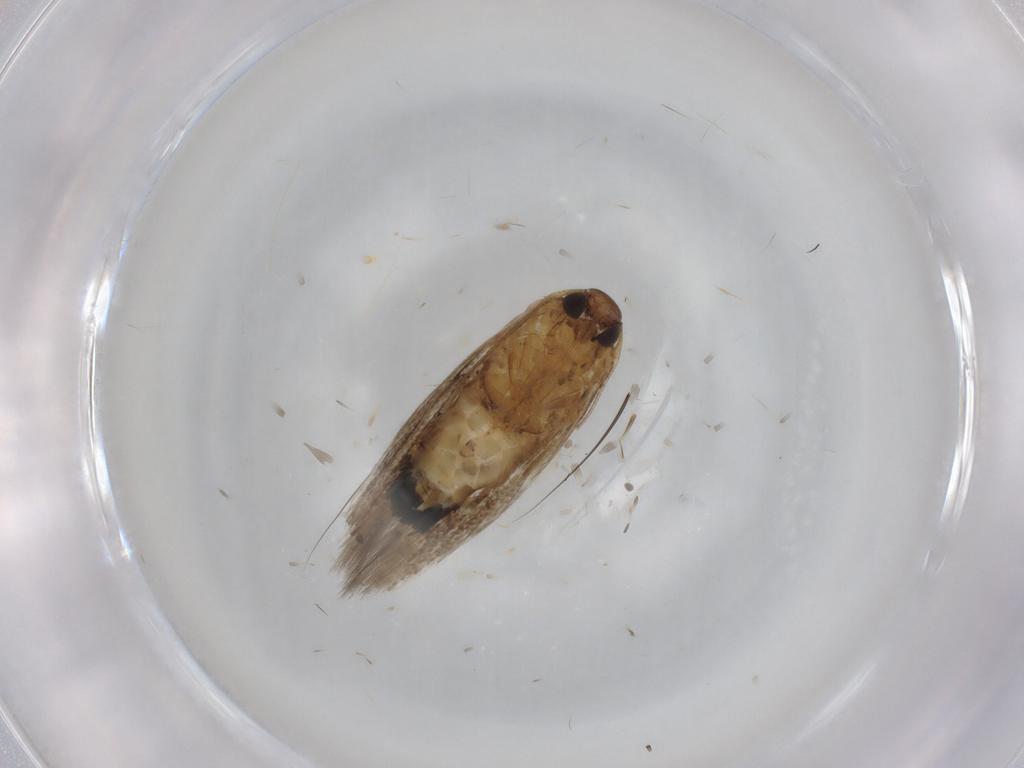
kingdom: Animalia
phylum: Arthropoda
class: Insecta
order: Lepidoptera
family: Cosmopterigidae
